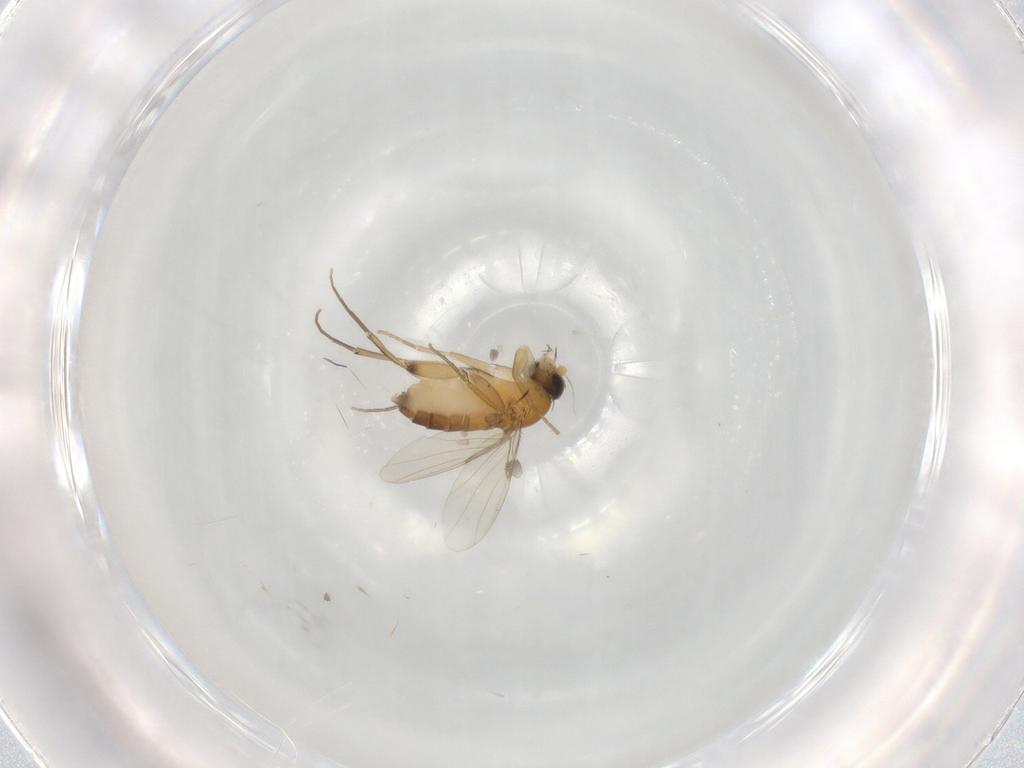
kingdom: Animalia
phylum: Arthropoda
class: Insecta
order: Diptera
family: Phoridae
